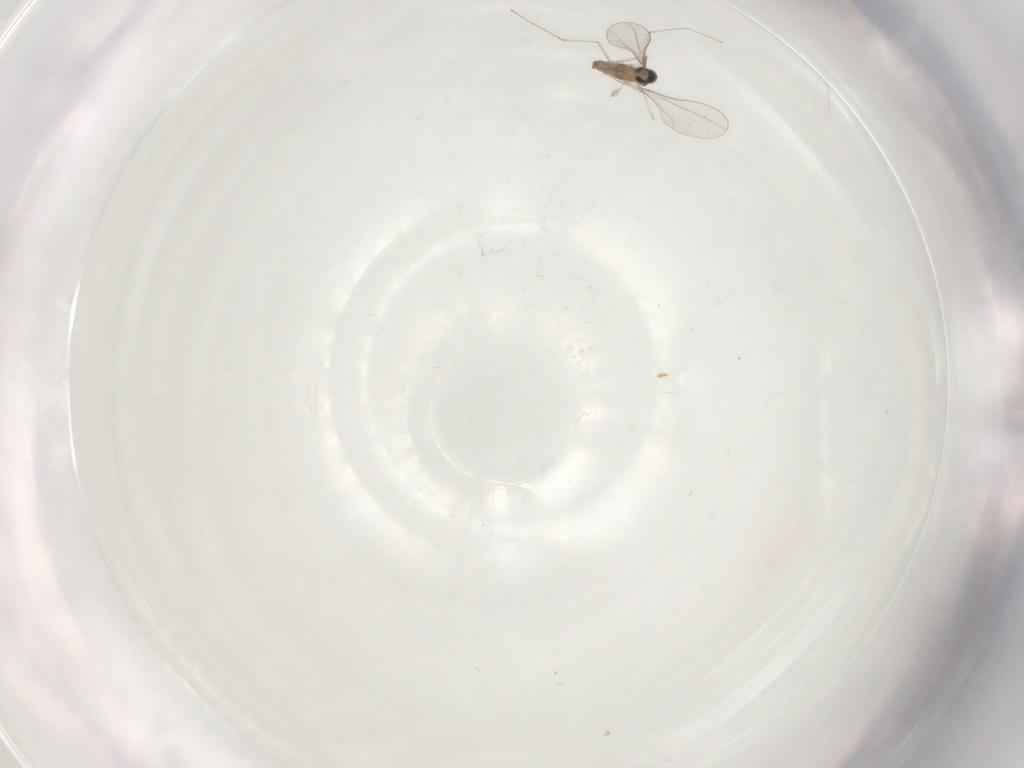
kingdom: Animalia
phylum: Arthropoda
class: Insecta
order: Diptera
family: Cecidomyiidae
